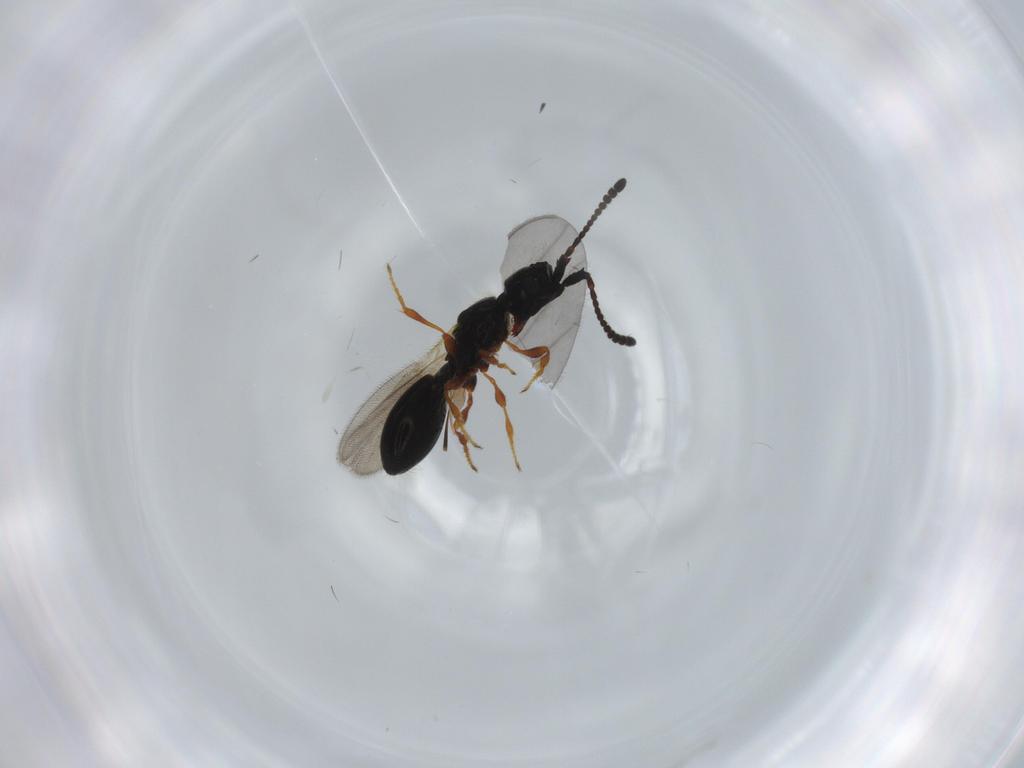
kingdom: Animalia
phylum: Arthropoda
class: Insecta
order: Hymenoptera
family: Diapriidae
